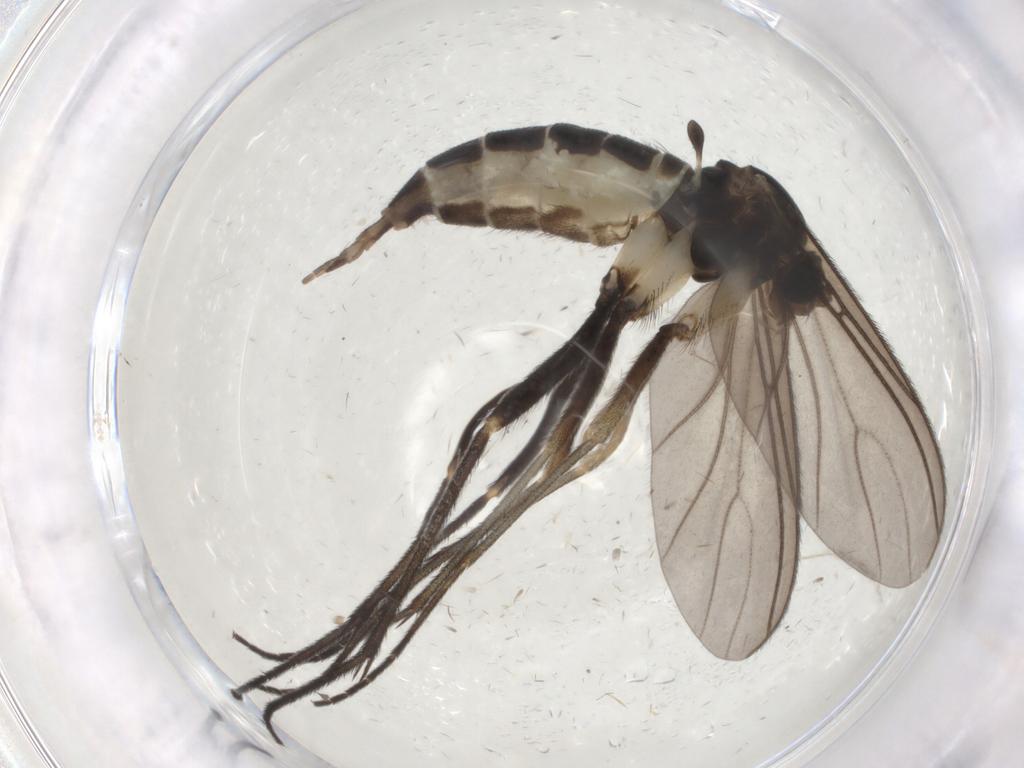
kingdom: Animalia
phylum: Arthropoda
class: Insecta
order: Diptera
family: Sciaridae
